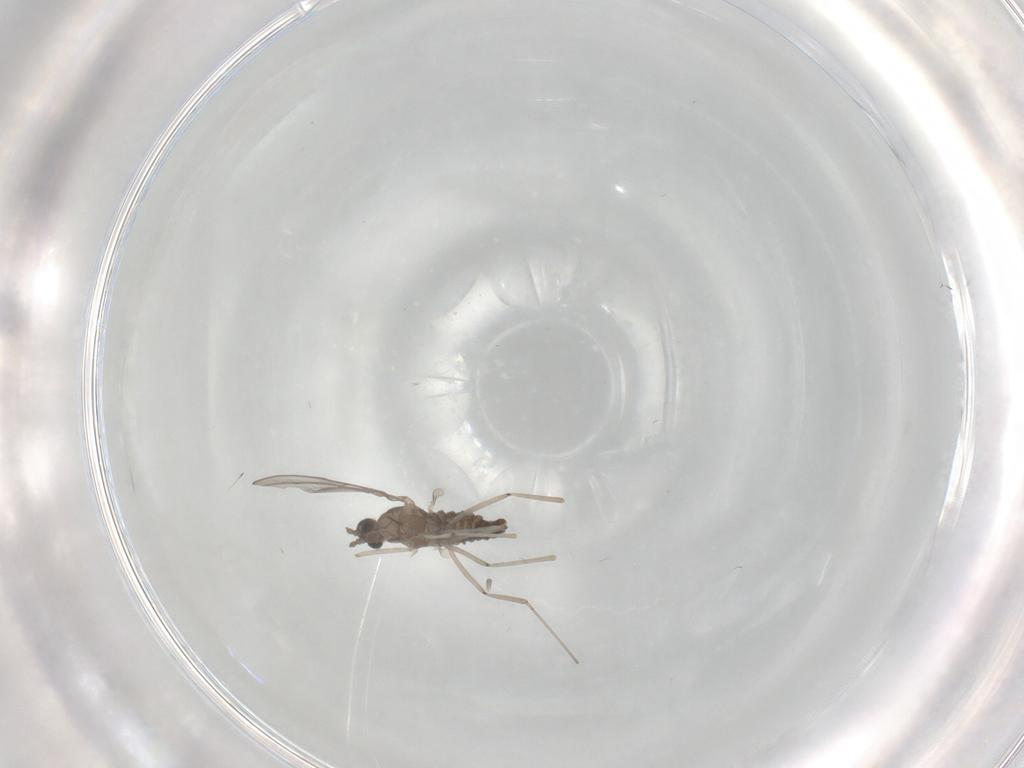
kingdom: Animalia
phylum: Arthropoda
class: Insecta
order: Diptera
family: Cecidomyiidae
